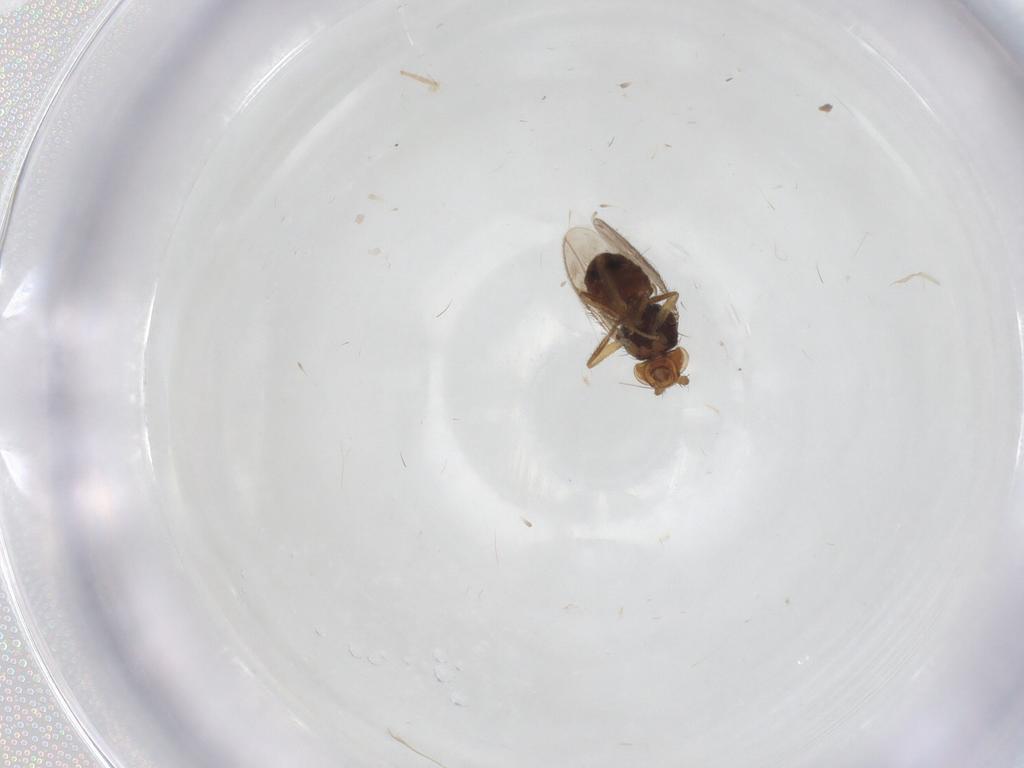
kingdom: Animalia
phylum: Arthropoda
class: Insecta
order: Diptera
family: Sphaeroceridae
